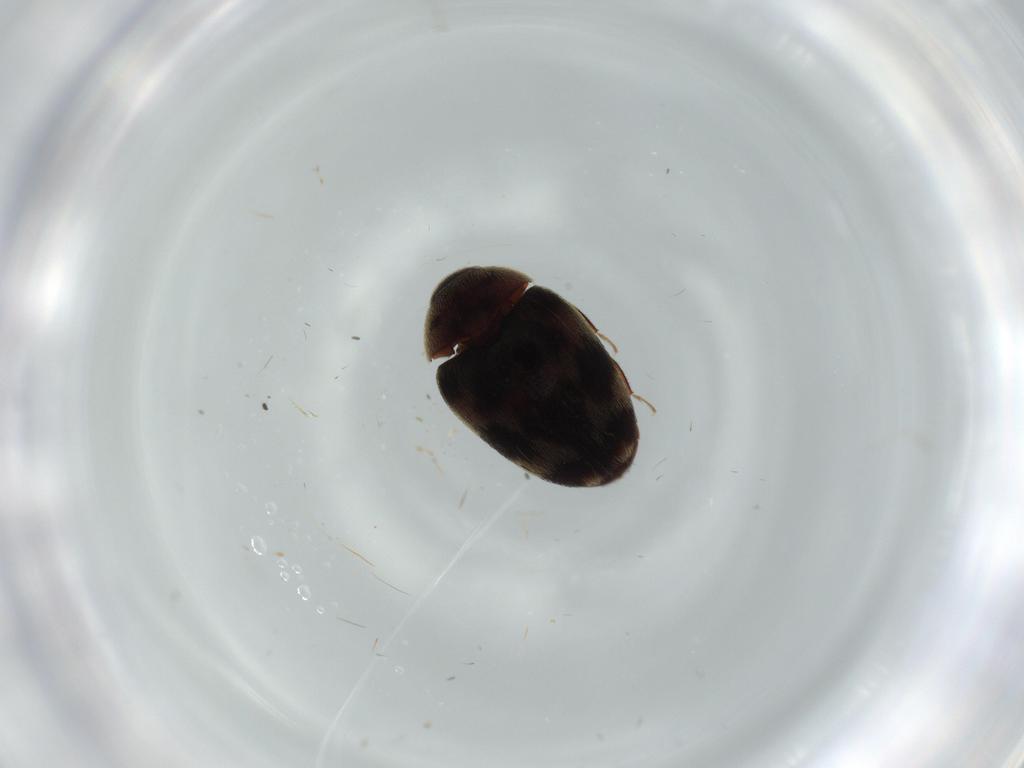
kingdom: Animalia
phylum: Arthropoda
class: Insecta
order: Coleoptera
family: Dermestidae
